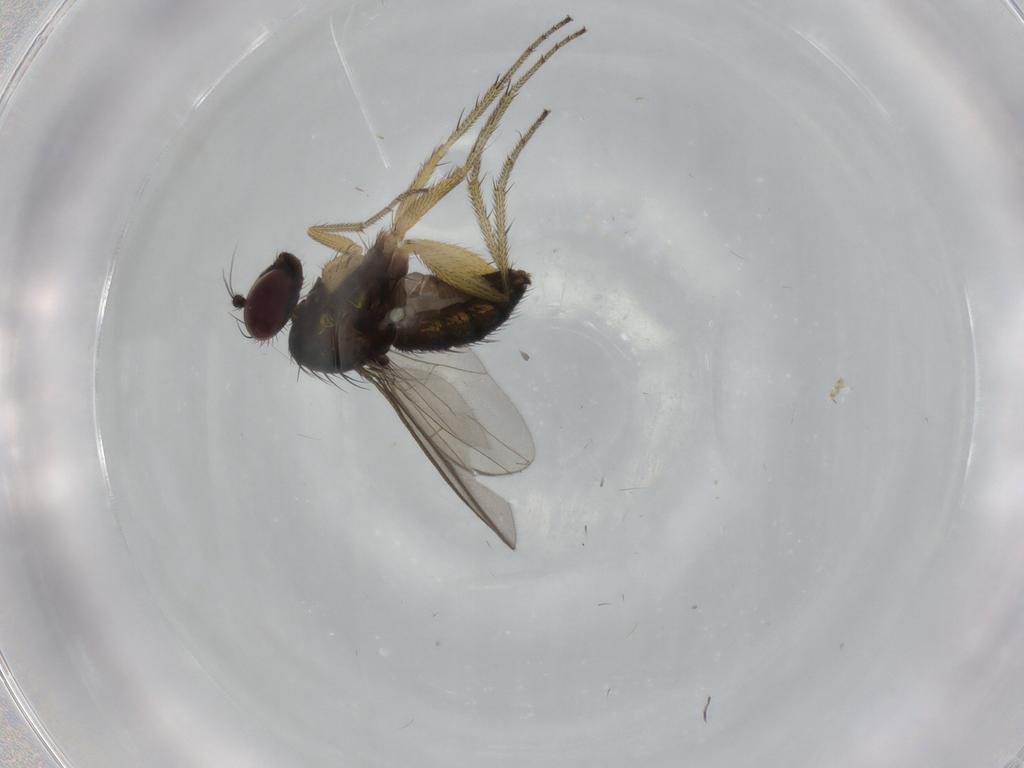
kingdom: Animalia
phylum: Arthropoda
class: Insecta
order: Diptera
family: Dolichopodidae
